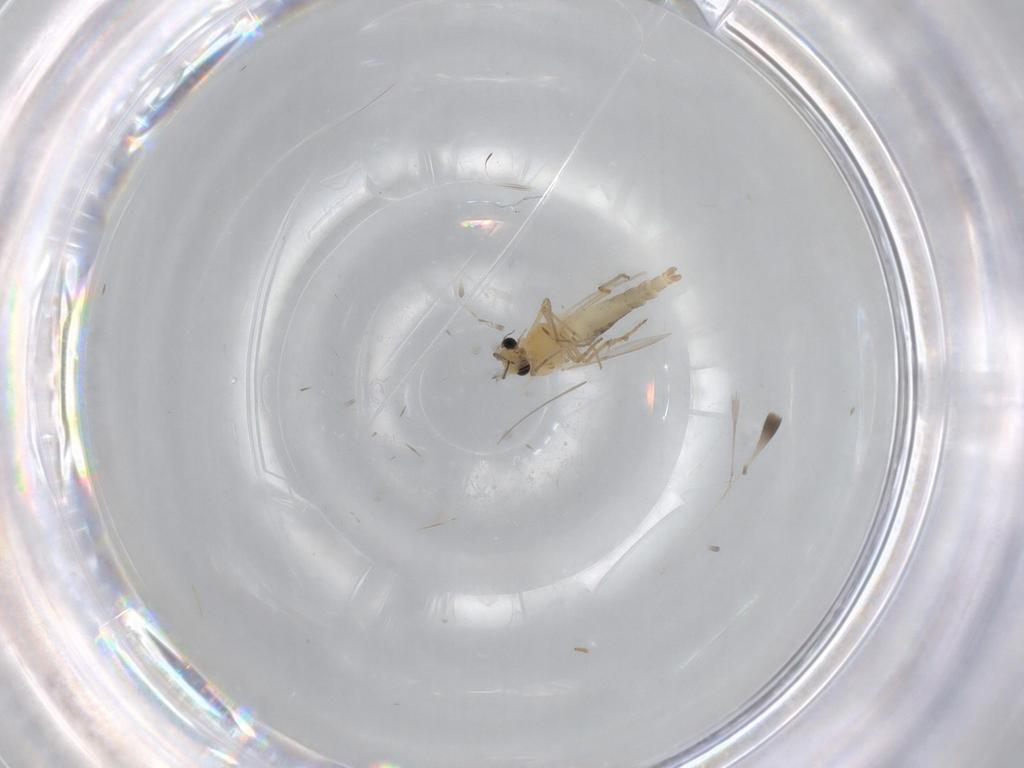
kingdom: Animalia
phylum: Arthropoda
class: Insecta
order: Diptera
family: Chironomidae
